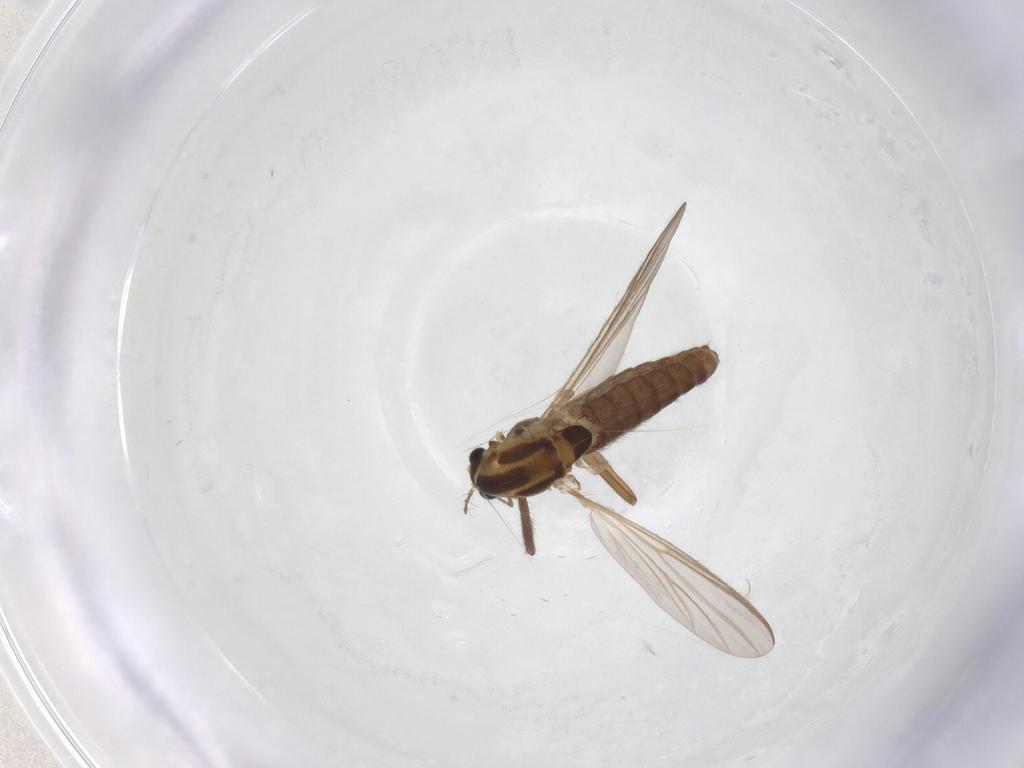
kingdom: Animalia
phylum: Arthropoda
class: Insecta
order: Diptera
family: Chironomidae
